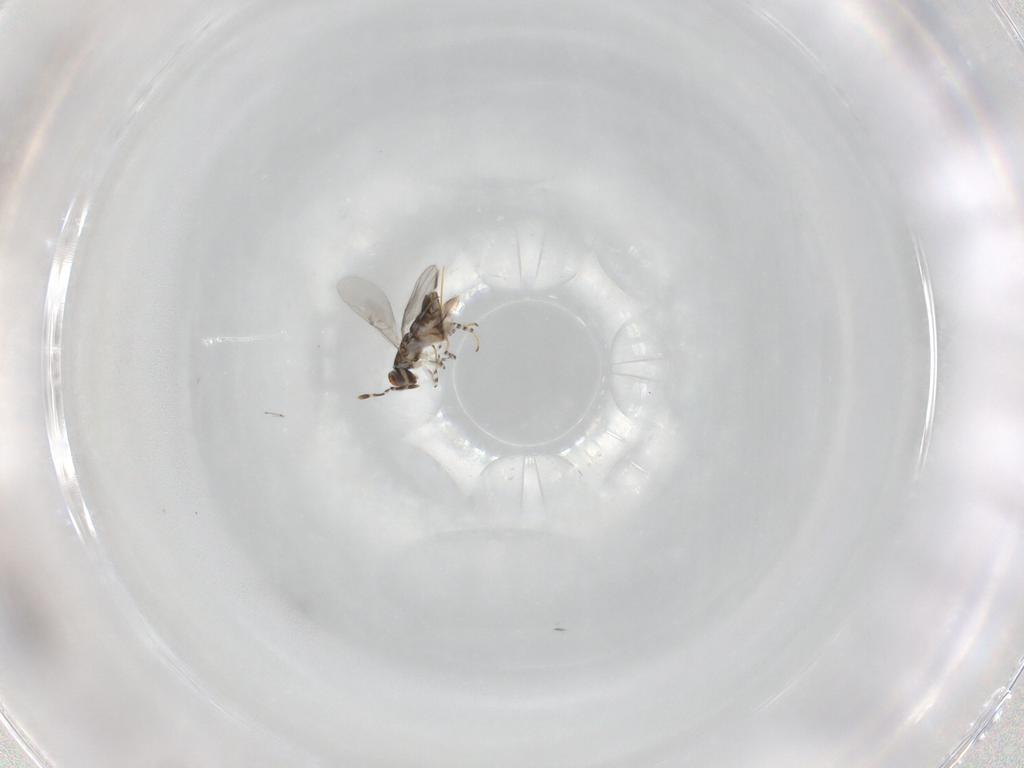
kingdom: Animalia
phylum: Arthropoda
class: Insecta
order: Hymenoptera
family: Encyrtidae
